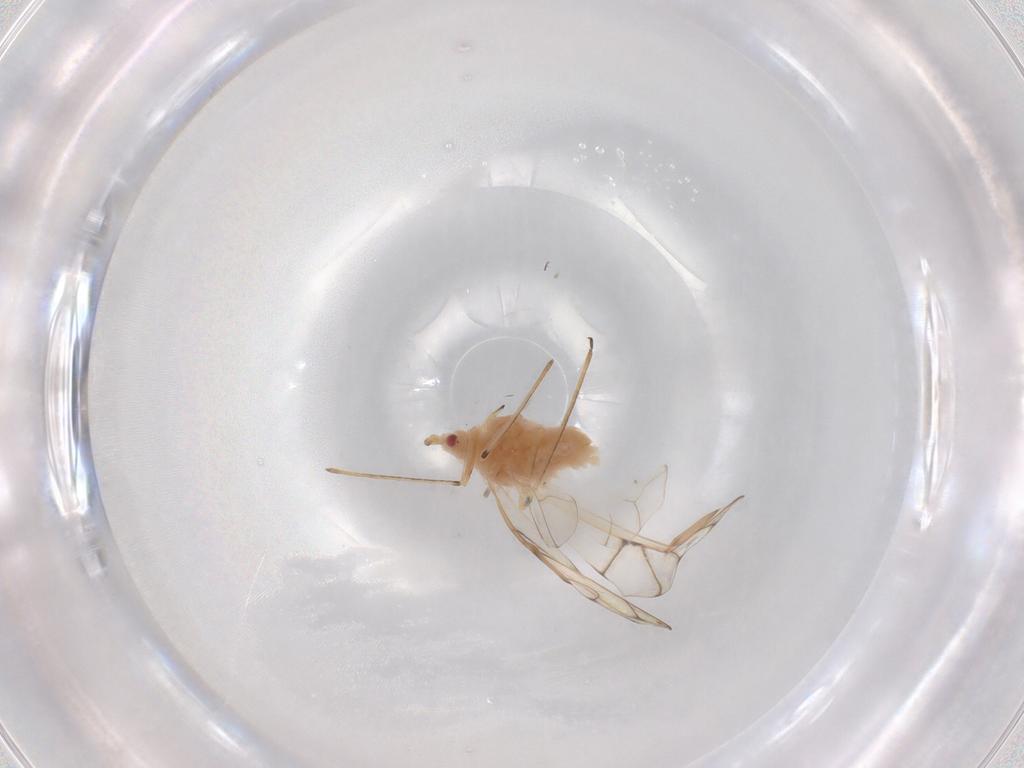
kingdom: Animalia
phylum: Arthropoda
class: Insecta
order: Hemiptera
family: Aphididae
